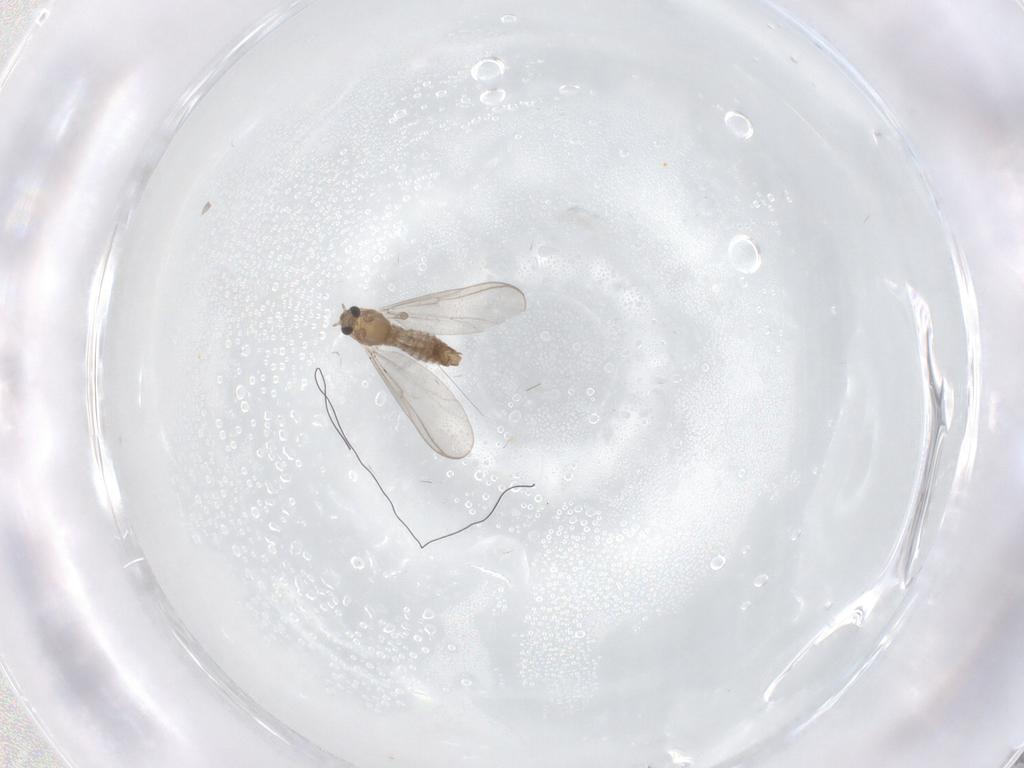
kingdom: Animalia
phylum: Arthropoda
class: Insecta
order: Diptera
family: Chironomidae
